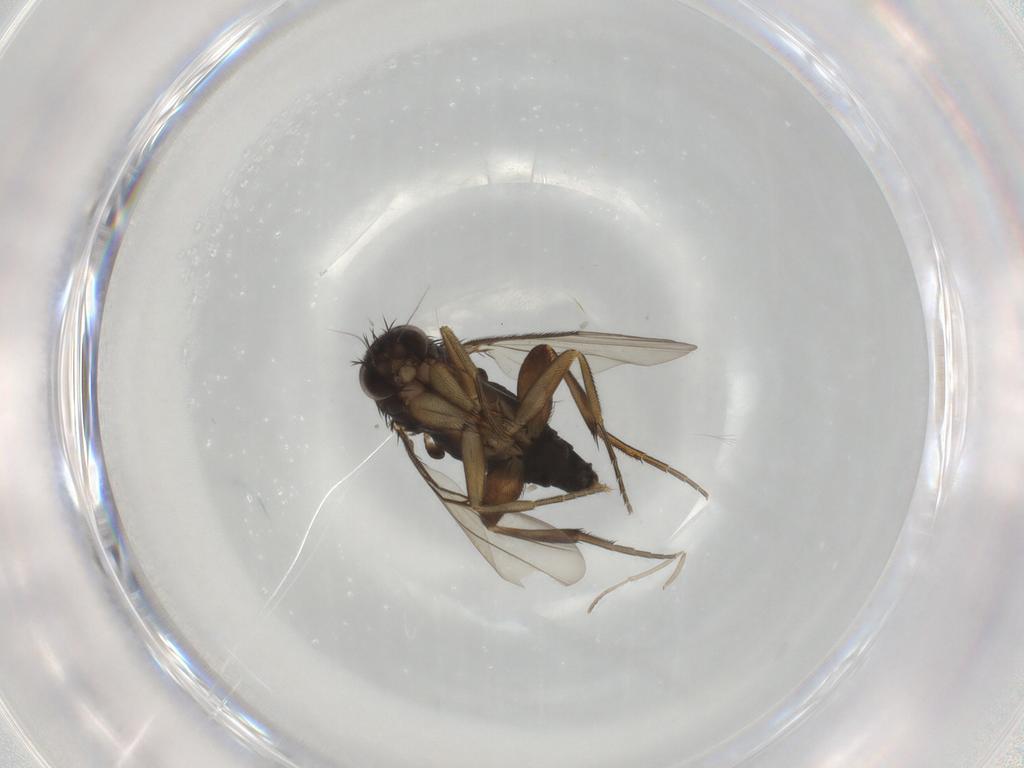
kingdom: Animalia
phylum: Arthropoda
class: Insecta
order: Diptera
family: Phoridae
